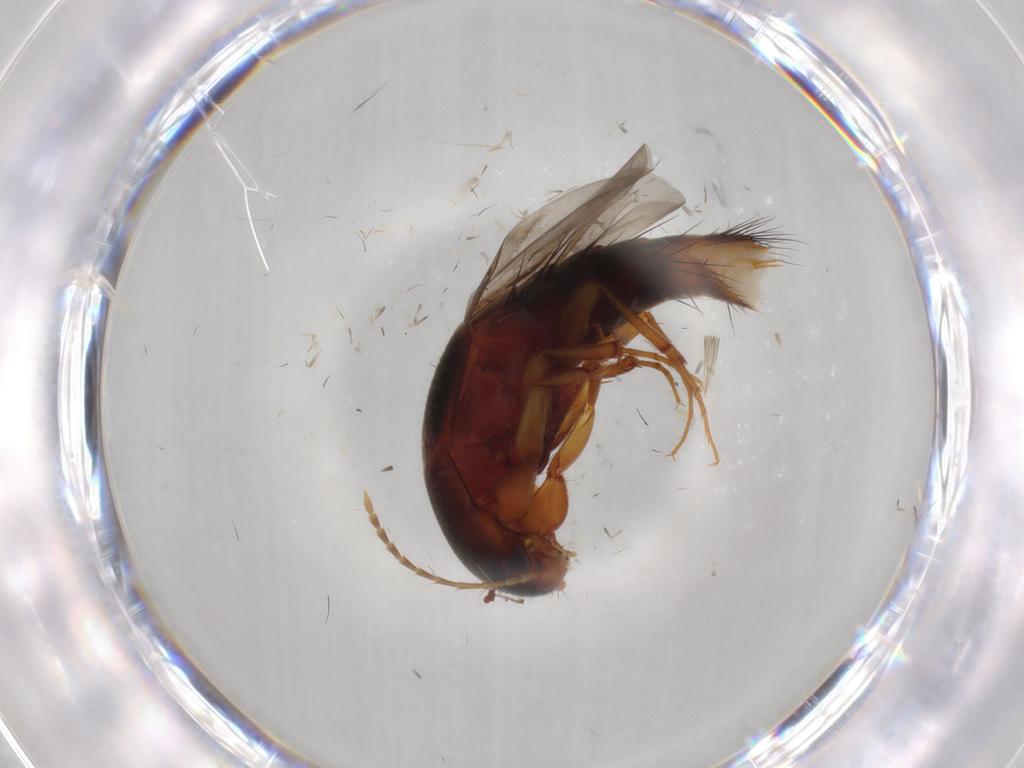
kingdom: Animalia
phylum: Arthropoda
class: Insecta
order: Coleoptera
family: Staphylinidae
